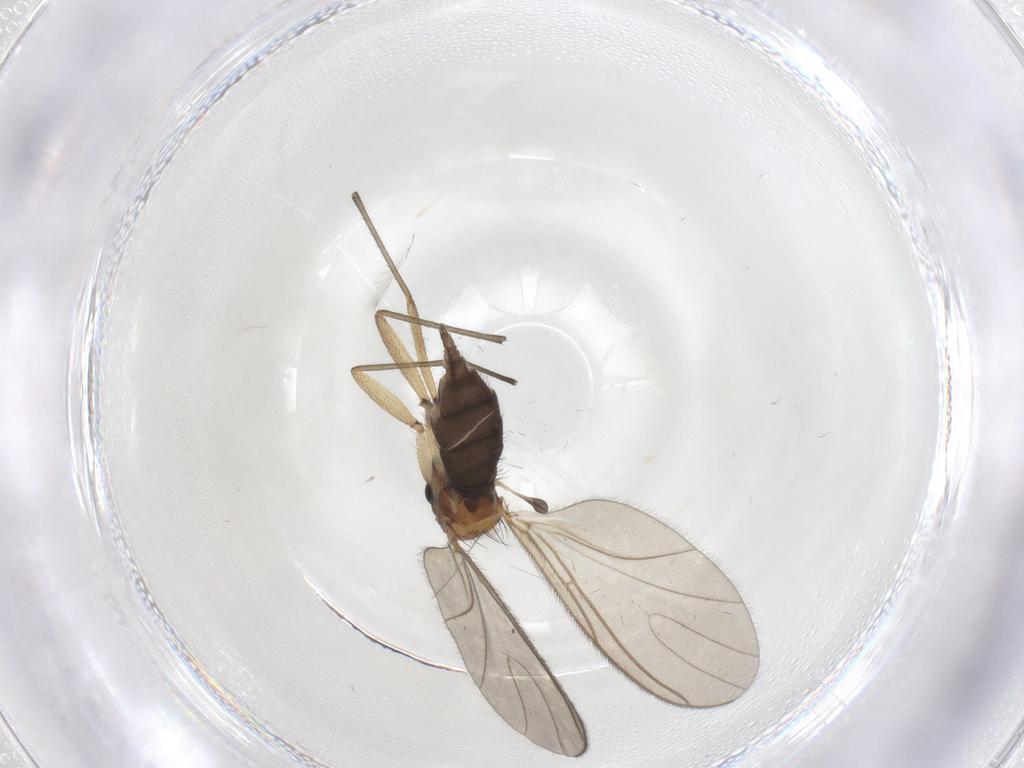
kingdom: Animalia
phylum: Arthropoda
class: Insecta
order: Diptera
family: Sciaridae
